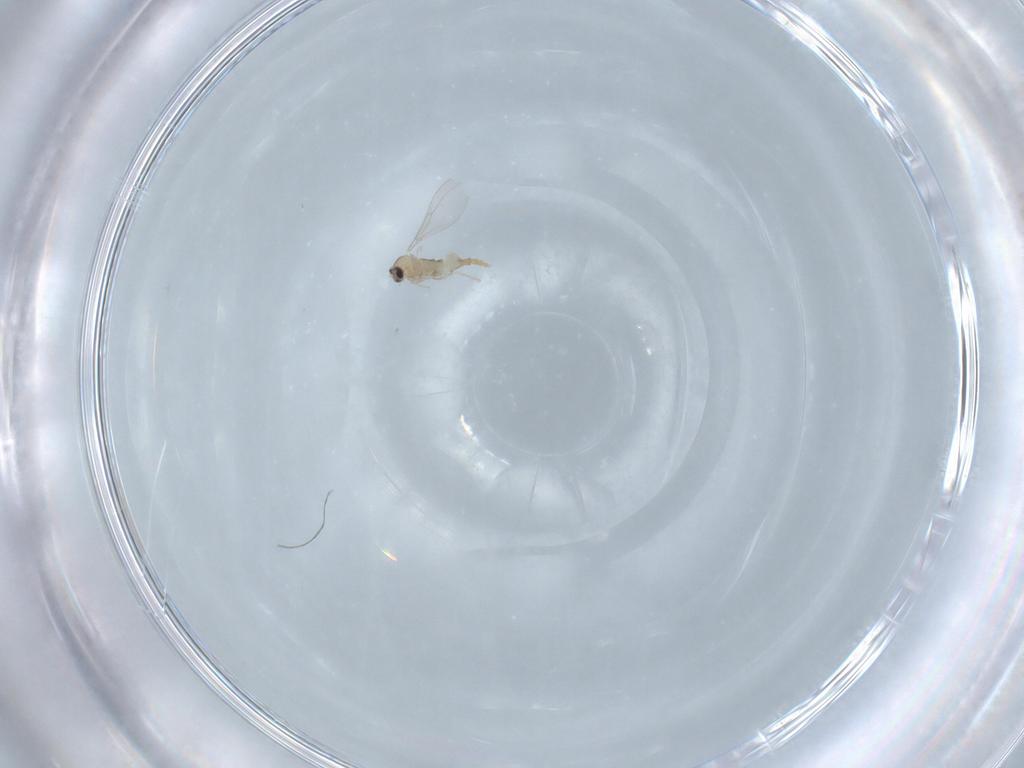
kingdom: Animalia
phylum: Arthropoda
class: Insecta
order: Diptera
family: Cecidomyiidae
